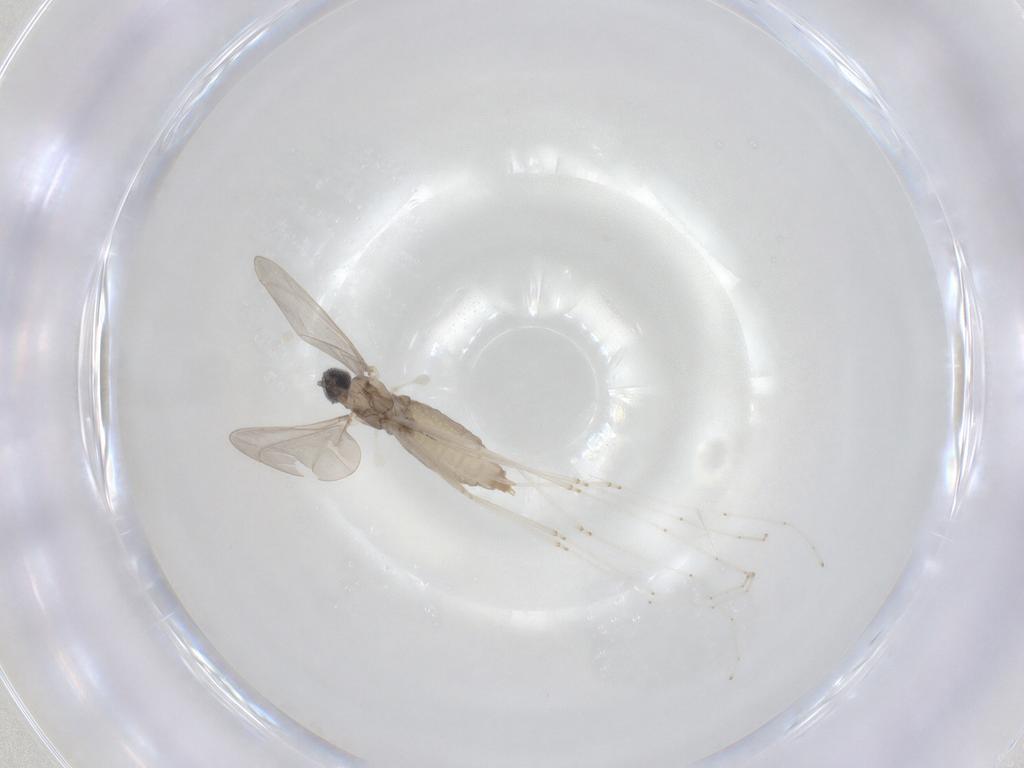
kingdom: Animalia
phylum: Arthropoda
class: Insecta
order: Diptera
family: Cecidomyiidae
